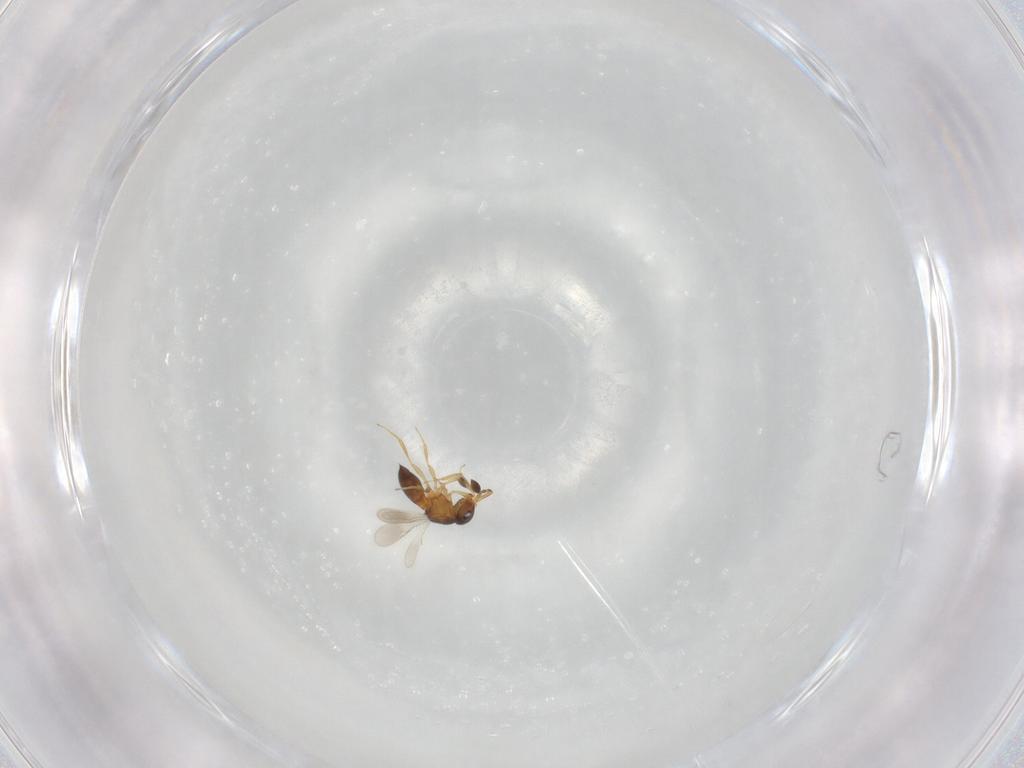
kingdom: Animalia
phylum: Arthropoda
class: Insecta
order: Hymenoptera
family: Scelionidae
